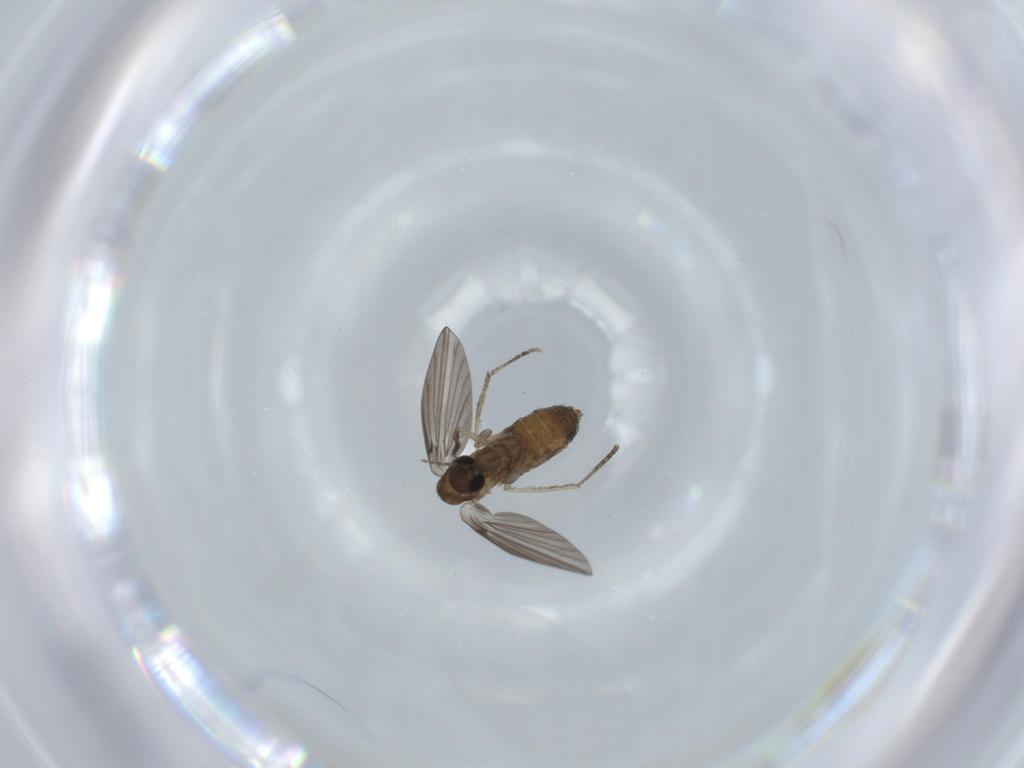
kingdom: Animalia
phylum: Arthropoda
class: Insecta
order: Diptera
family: Psychodidae
